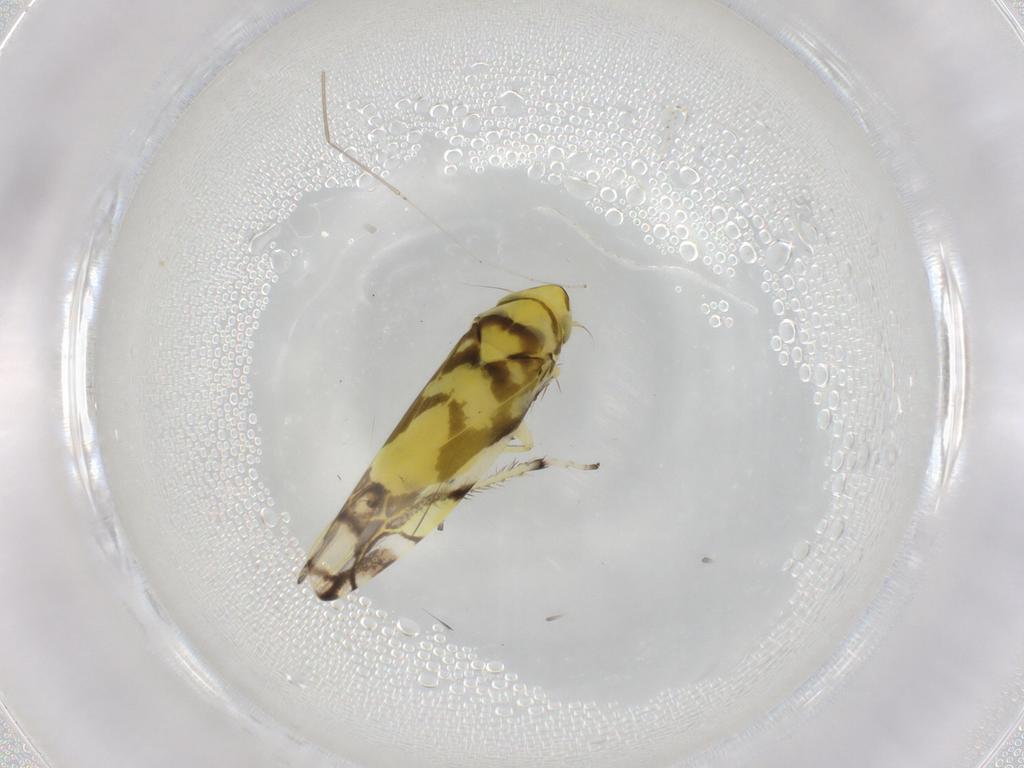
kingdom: Animalia
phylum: Arthropoda
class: Insecta
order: Hemiptera
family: Cicadellidae
